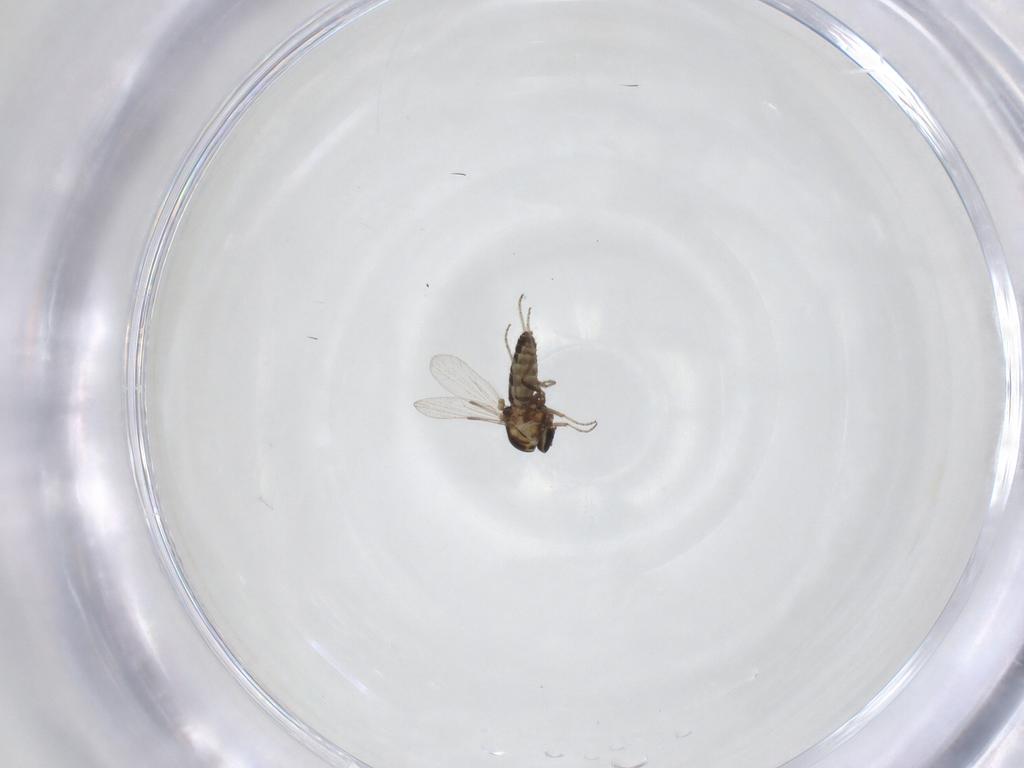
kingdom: Animalia
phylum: Arthropoda
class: Insecta
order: Diptera
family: Ceratopogonidae
